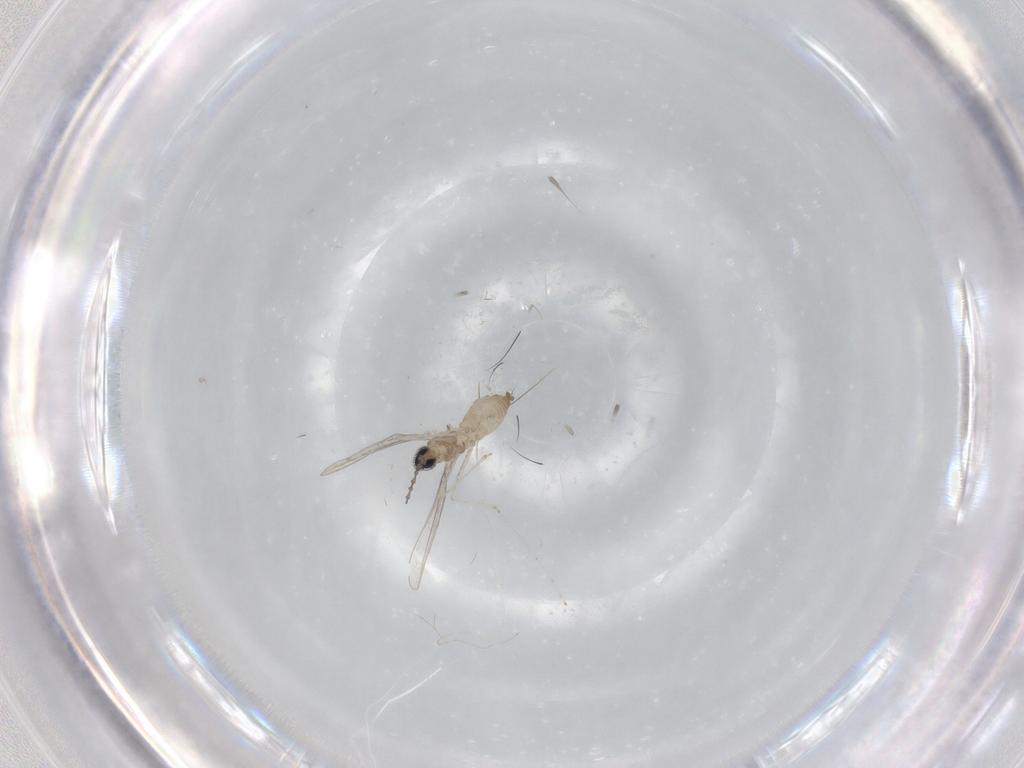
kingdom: Animalia
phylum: Arthropoda
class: Insecta
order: Diptera
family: Cecidomyiidae
